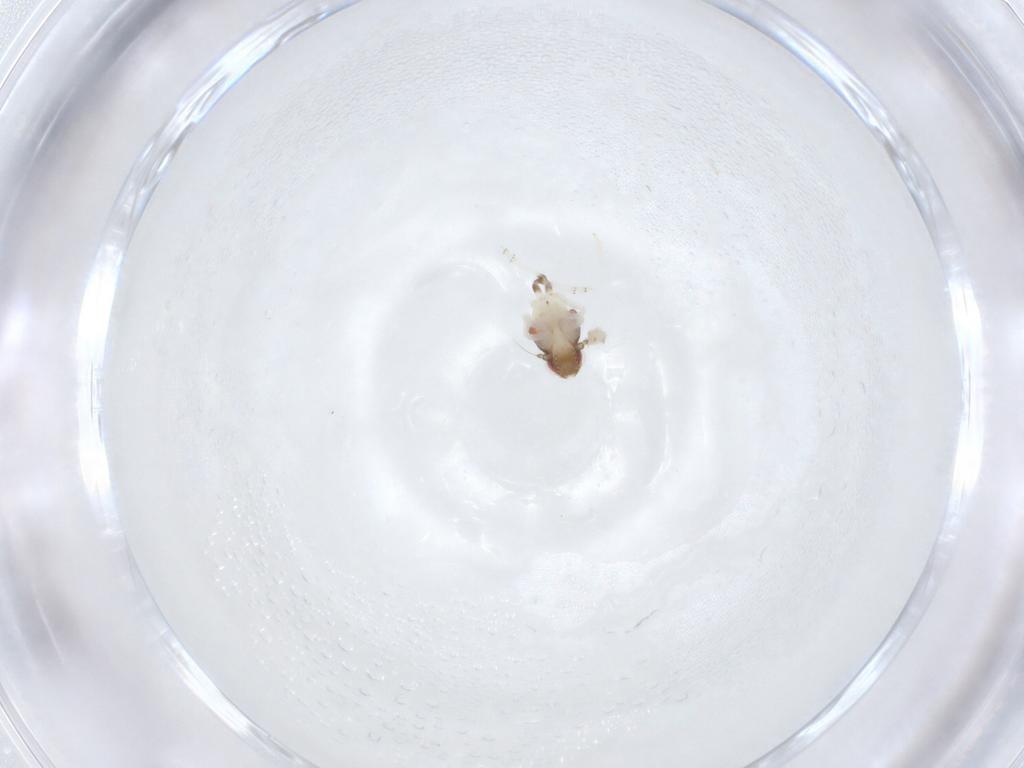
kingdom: Animalia
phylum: Arthropoda
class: Insecta
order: Hemiptera
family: Nogodinidae
